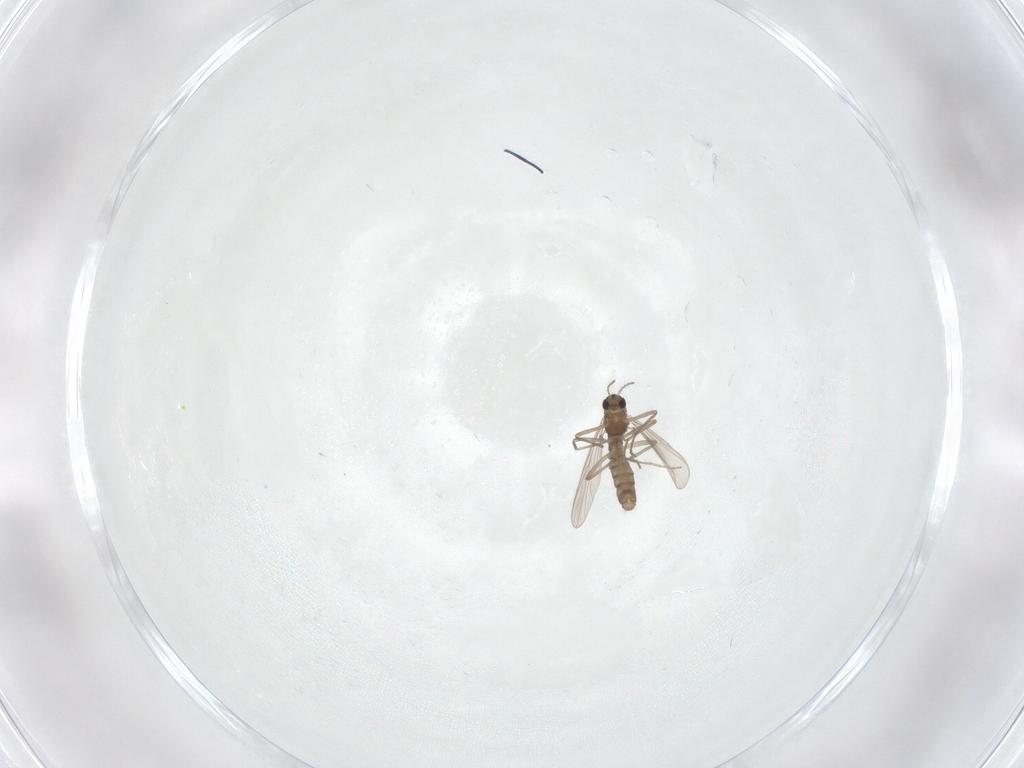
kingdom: Animalia
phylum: Arthropoda
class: Insecta
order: Diptera
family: Chironomidae
